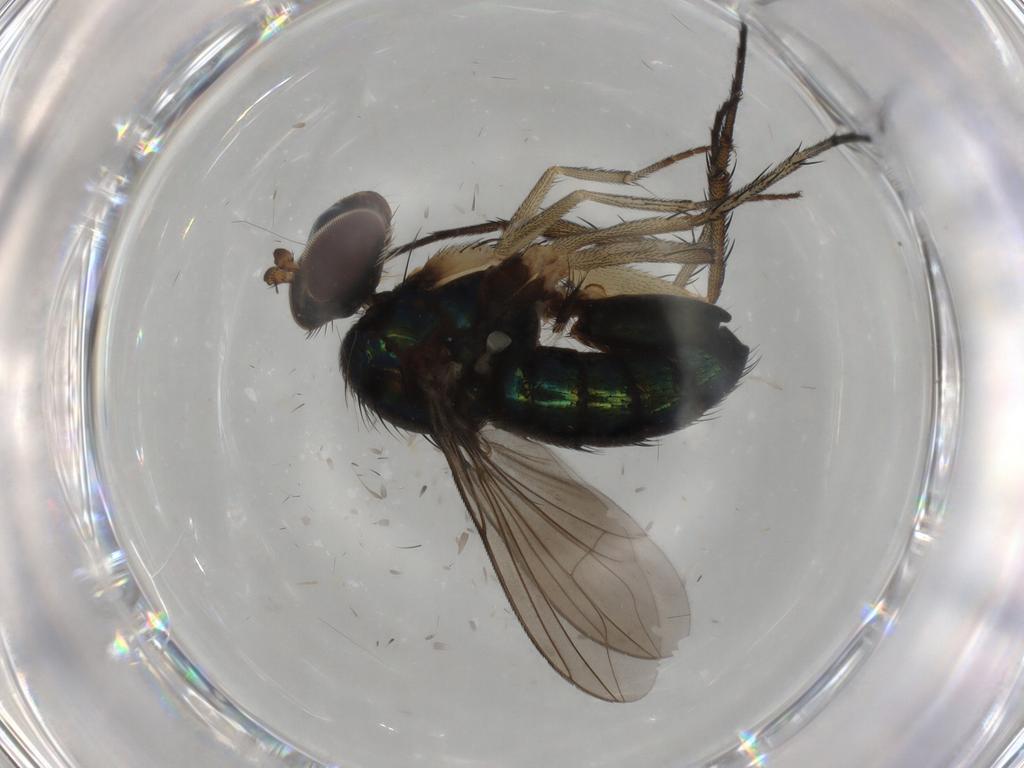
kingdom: Animalia
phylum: Arthropoda
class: Insecta
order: Diptera
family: Dolichopodidae
